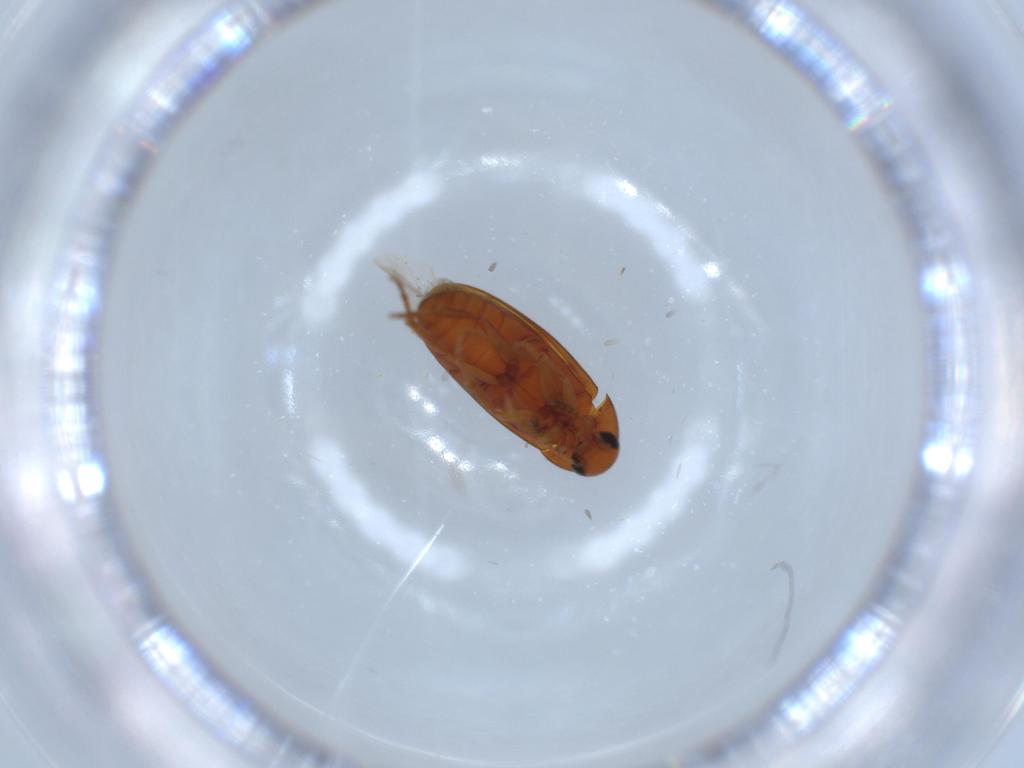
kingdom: Animalia
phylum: Arthropoda
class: Insecta
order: Coleoptera
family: Scraptiidae
